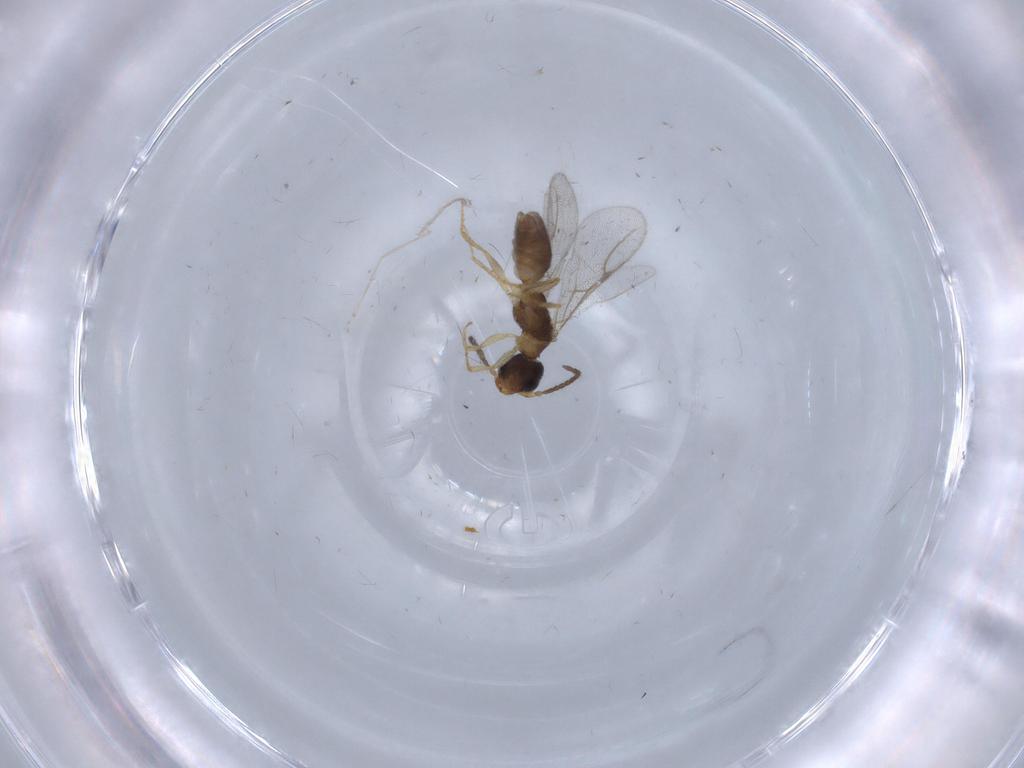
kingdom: Animalia
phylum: Arthropoda
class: Insecta
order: Hymenoptera
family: Bethylidae
